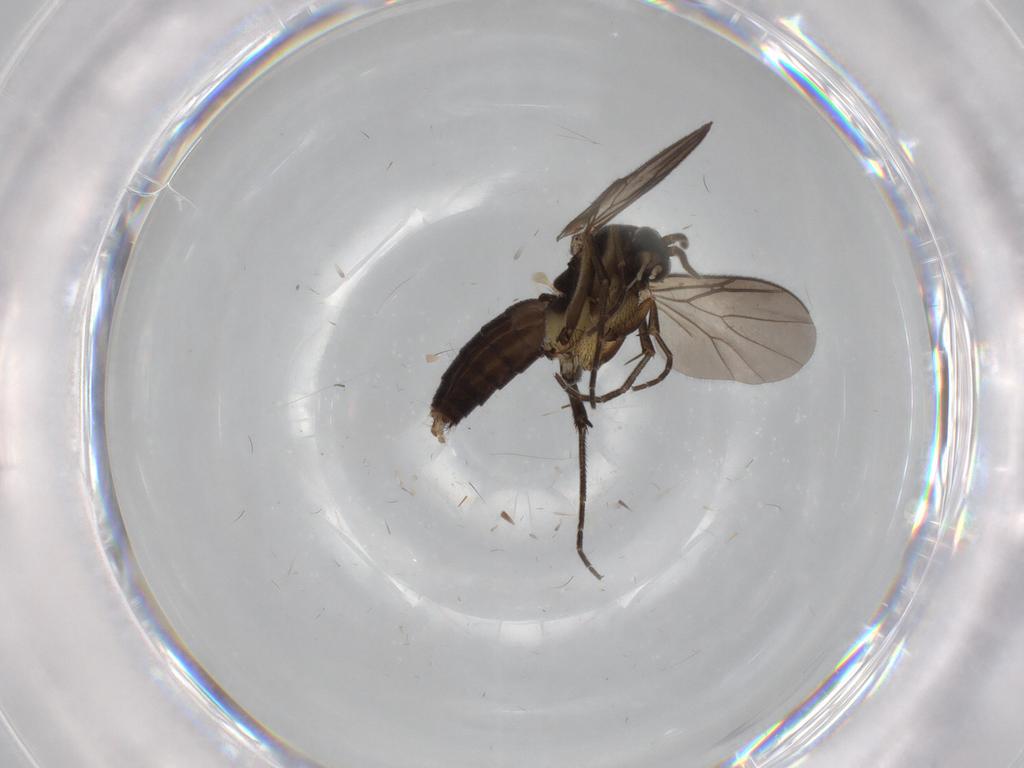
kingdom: Animalia
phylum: Arthropoda
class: Insecta
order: Diptera
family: Mycetophilidae
